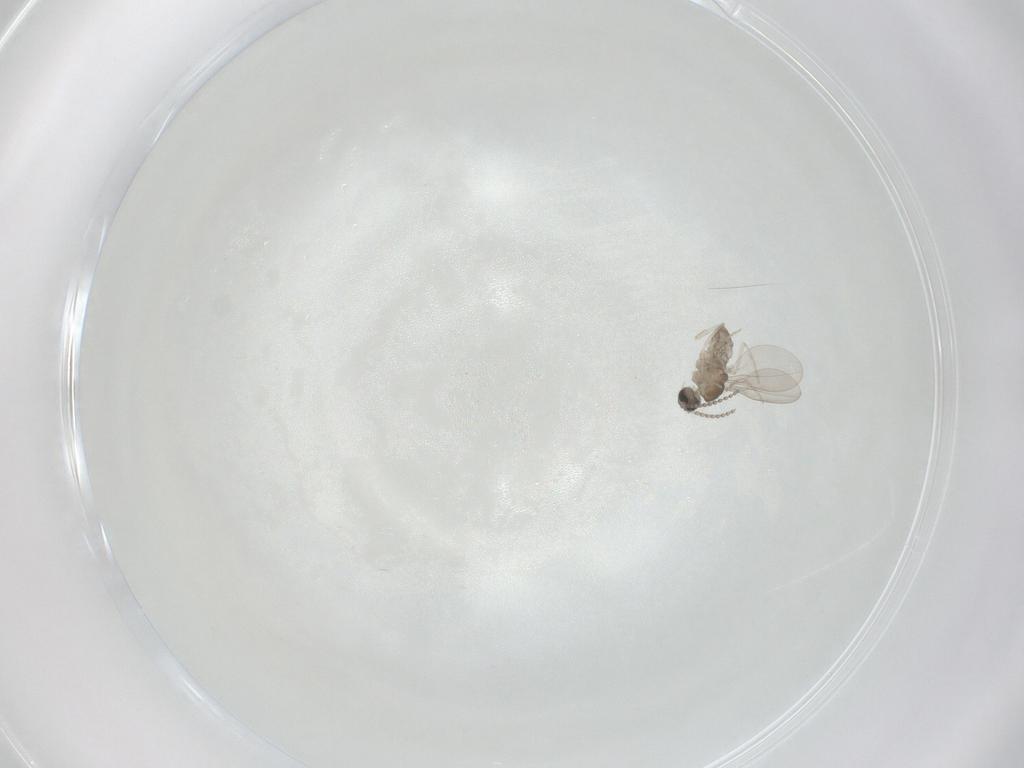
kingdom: Animalia
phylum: Arthropoda
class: Insecta
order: Diptera
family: Cecidomyiidae
